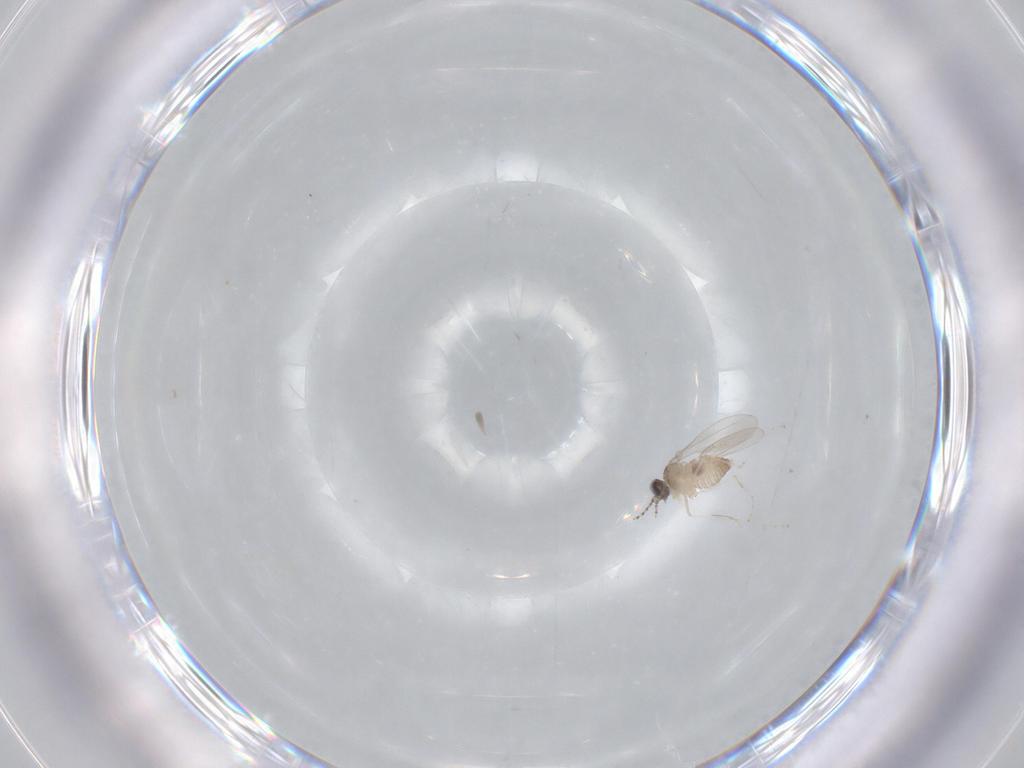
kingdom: Animalia
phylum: Arthropoda
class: Insecta
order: Diptera
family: Cecidomyiidae
